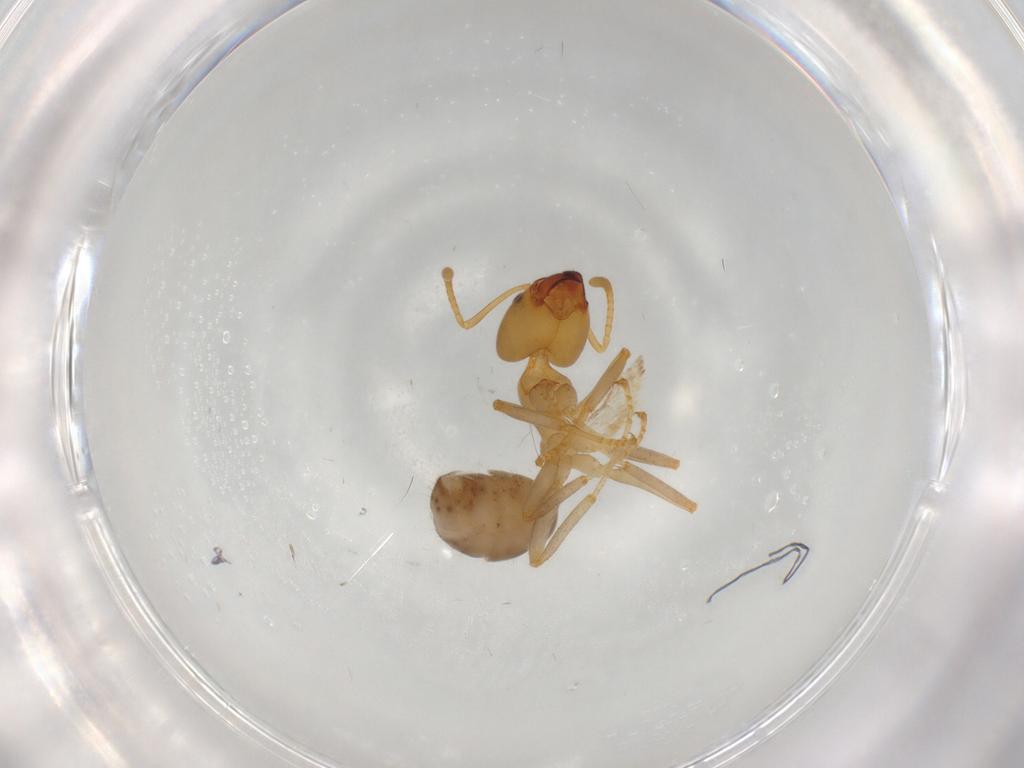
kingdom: Animalia
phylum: Arthropoda
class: Insecta
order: Hymenoptera
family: Formicidae
